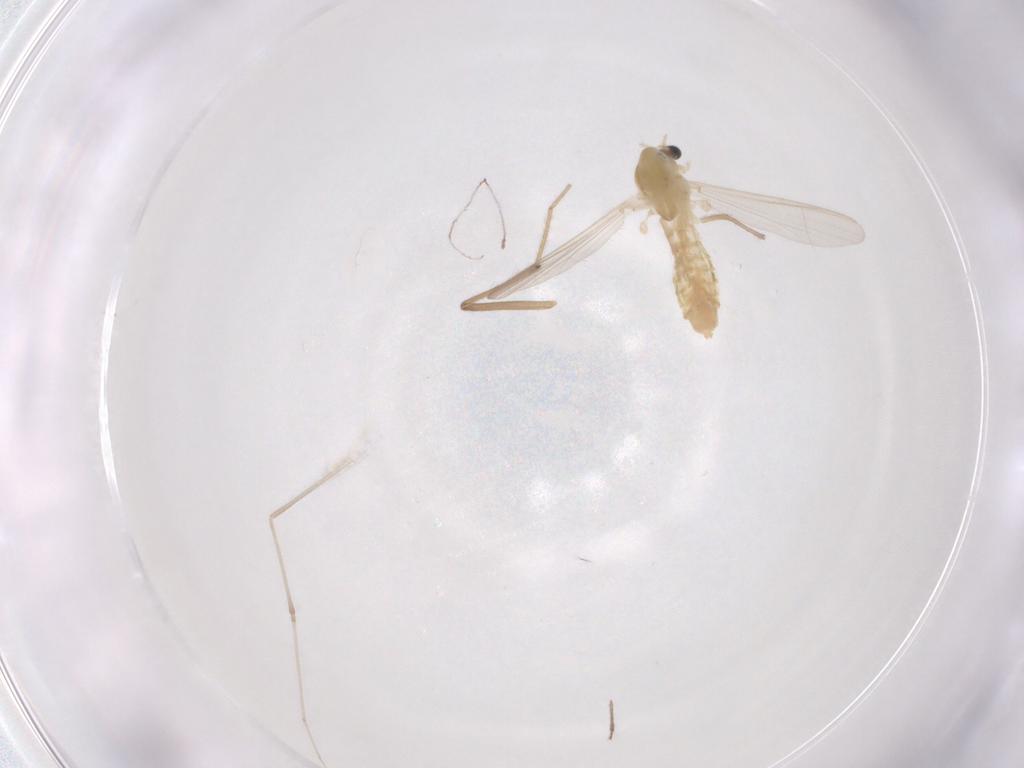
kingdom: Animalia
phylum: Arthropoda
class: Insecta
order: Diptera
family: Chironomidae
